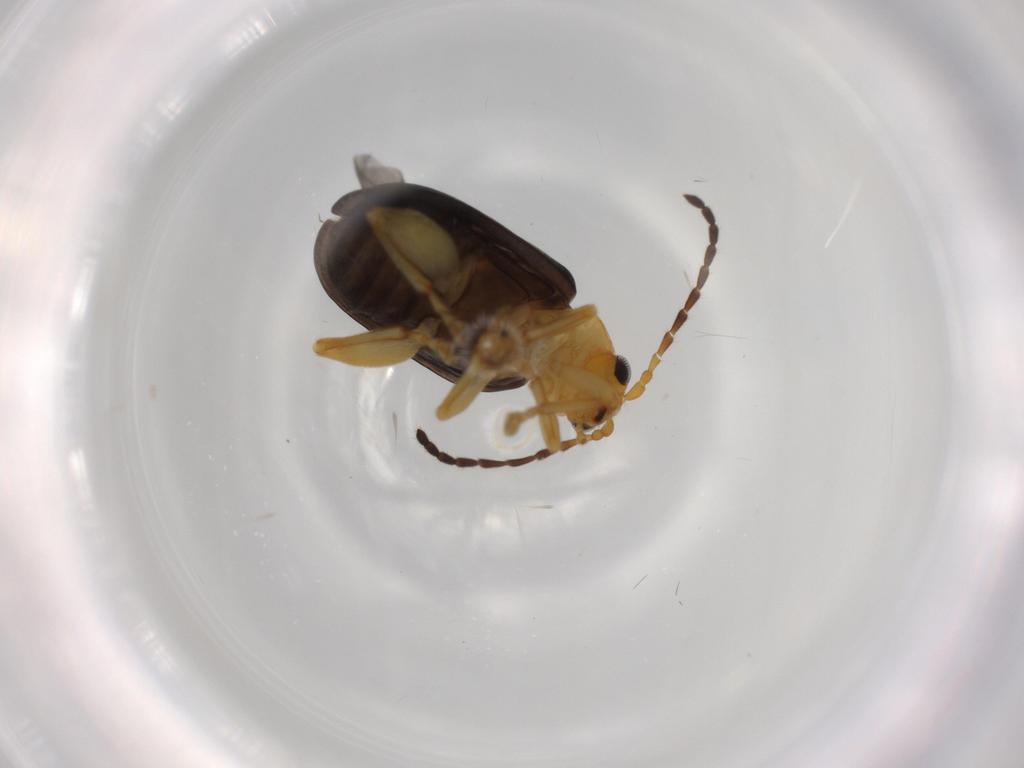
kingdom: Animalia
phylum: Arthropoda
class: Insecta
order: Coleoptera
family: Chrysomelidae
